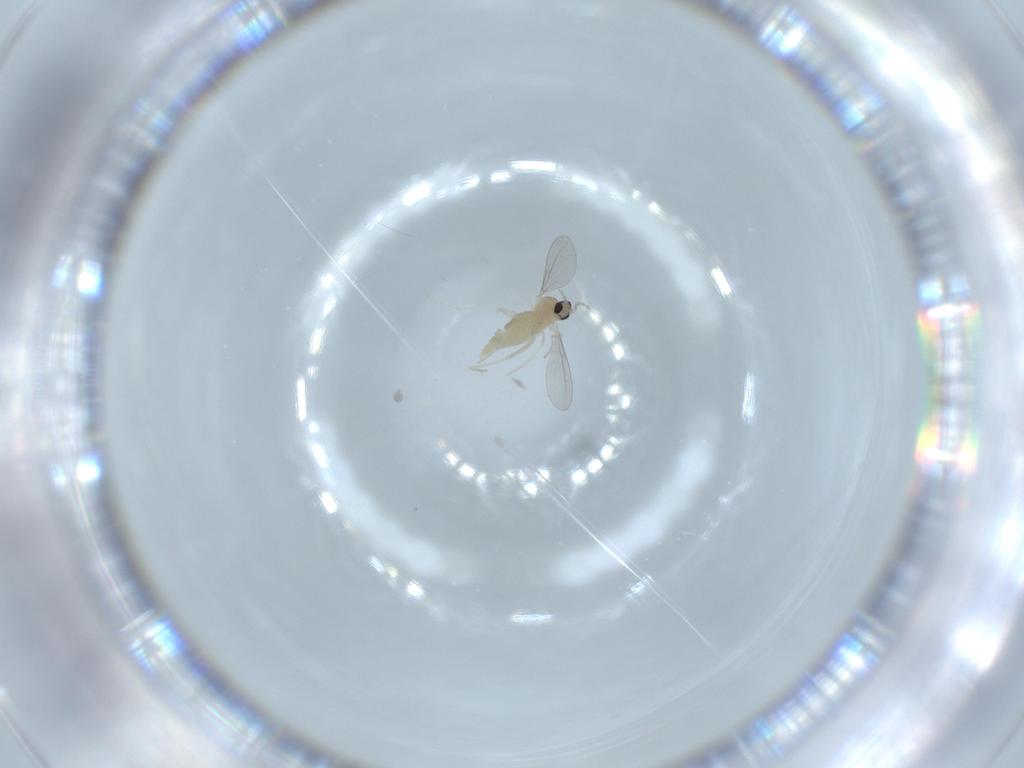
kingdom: Animalia
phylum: Arthropoda
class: Insecta
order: Diptera
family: Cecidomyiidae
